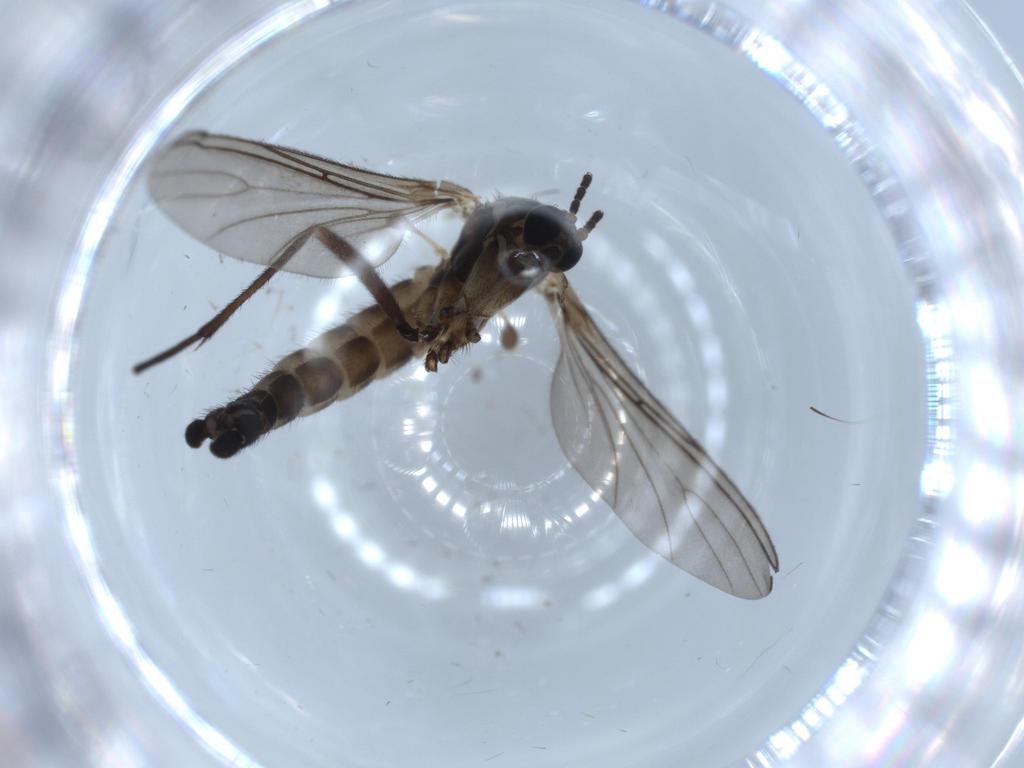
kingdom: Animalia
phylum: Arthropoda
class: Insecta
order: Diptera
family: Sciaridae
